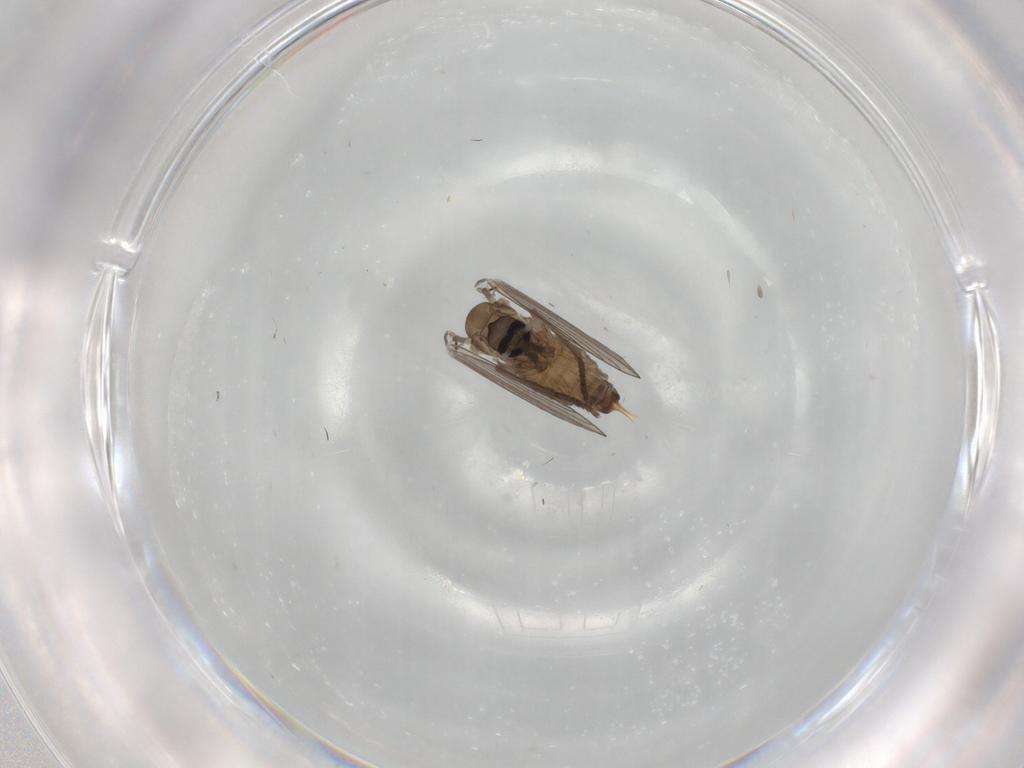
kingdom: Animalia
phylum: Arthropoda
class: Insecta
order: Diptera
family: Psychodidae
